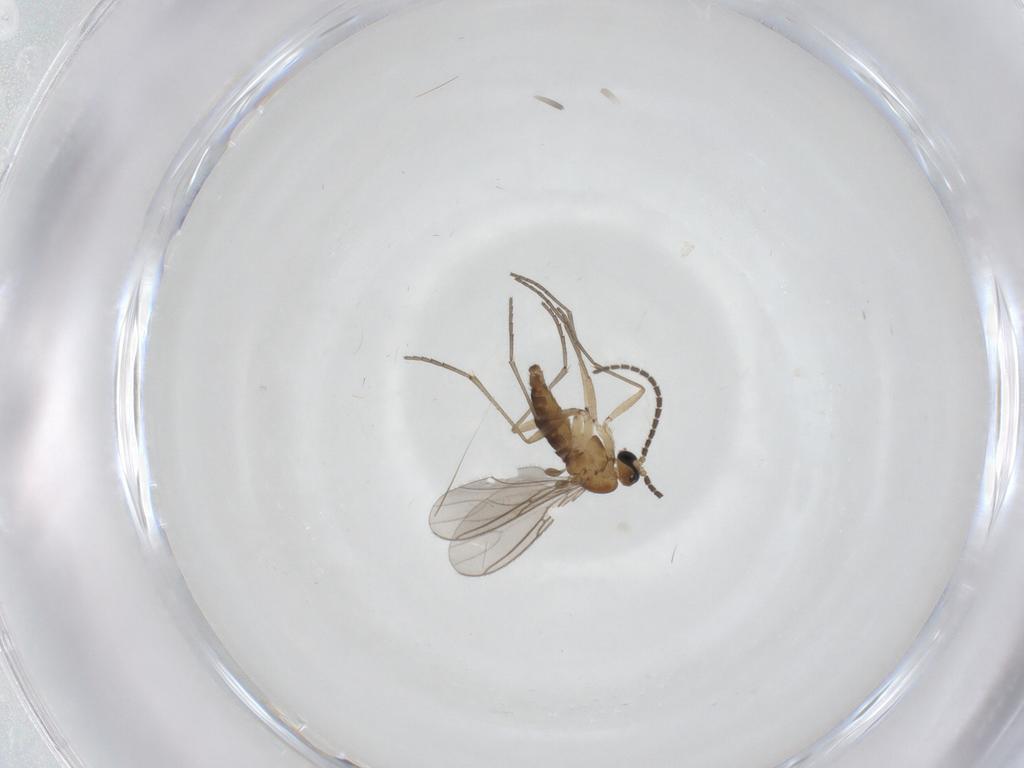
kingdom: Animalia
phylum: Arthropoda
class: Insecta
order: Diptera
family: Sciaridae
